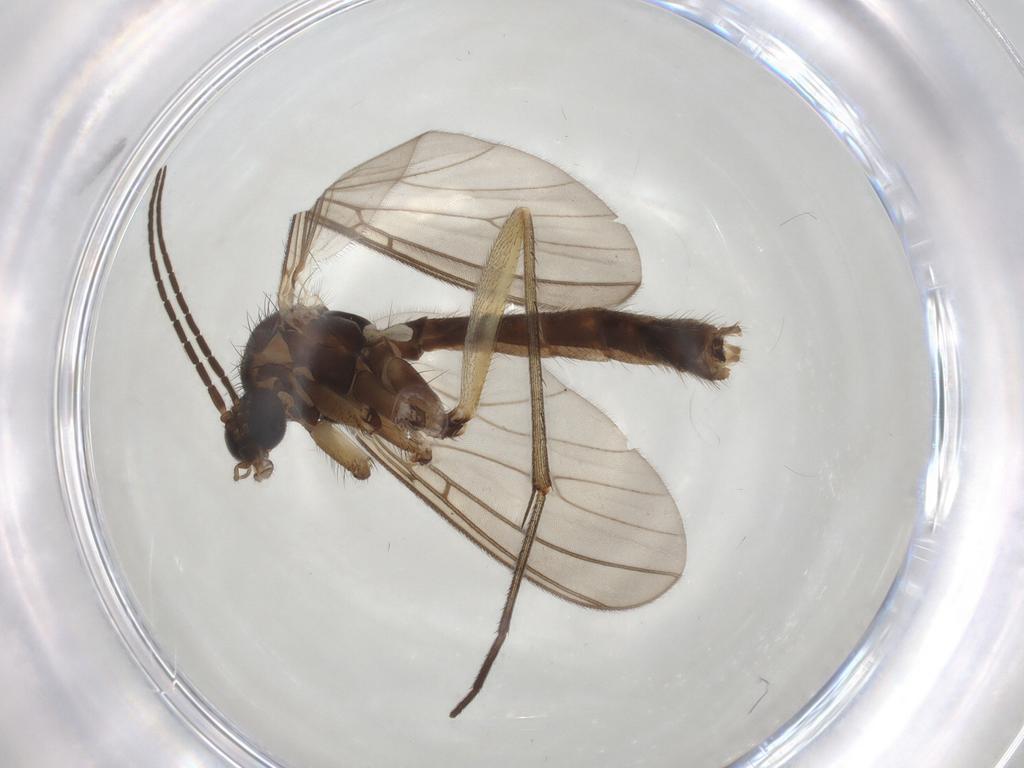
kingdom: Animalia
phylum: Arthropoda
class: Insecta
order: Diptera
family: Mycetophilidae
